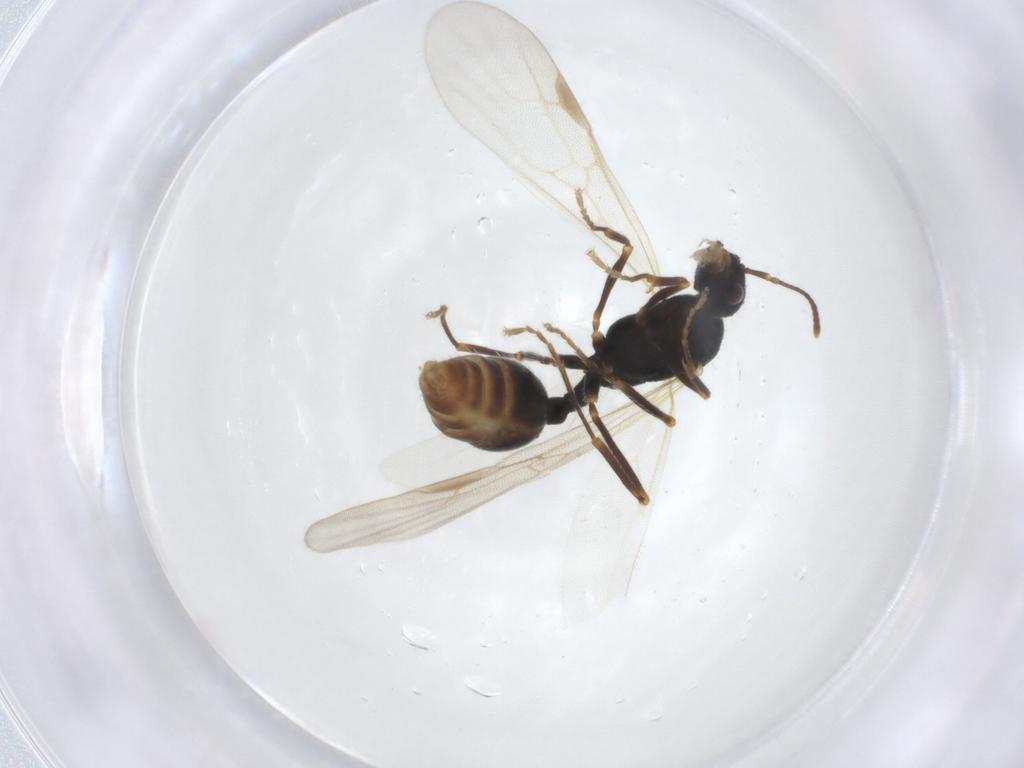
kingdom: Animalia
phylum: Arthropoda
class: Insecta
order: Hymenoptera
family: Formicidae
